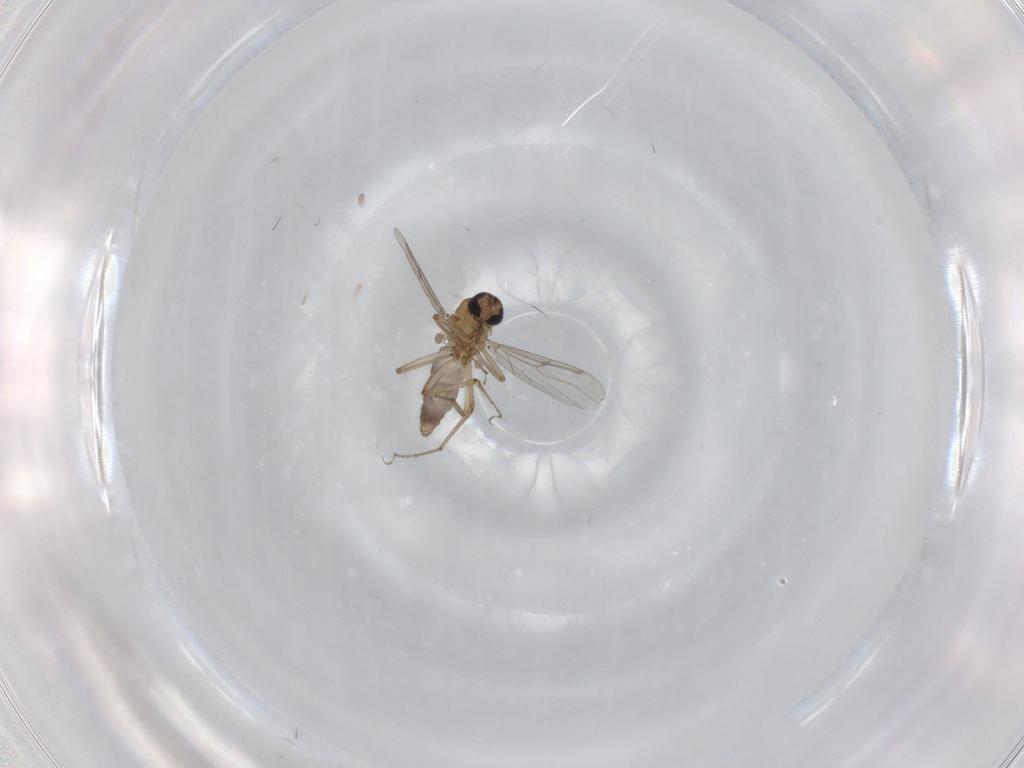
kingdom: Animalia
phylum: Arthropoda
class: Insecta
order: Diptera
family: Ceratopogonidae
